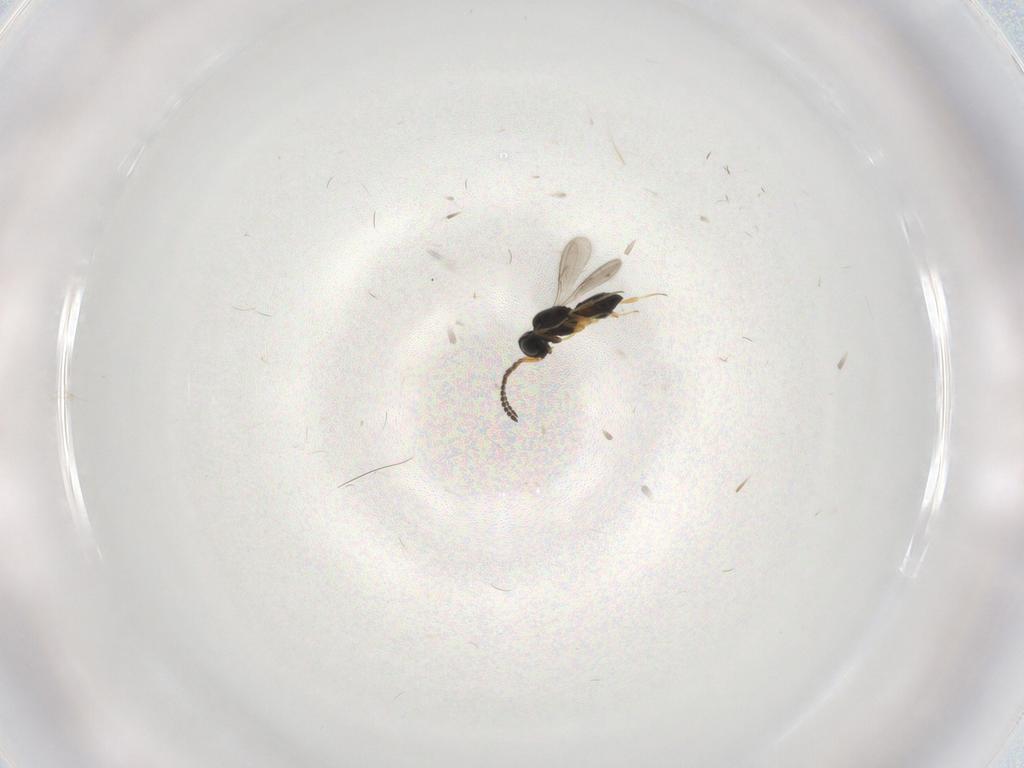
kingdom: Animalia
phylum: Arthropoda
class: Insecta
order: Hymenoptera
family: Scelionidae
